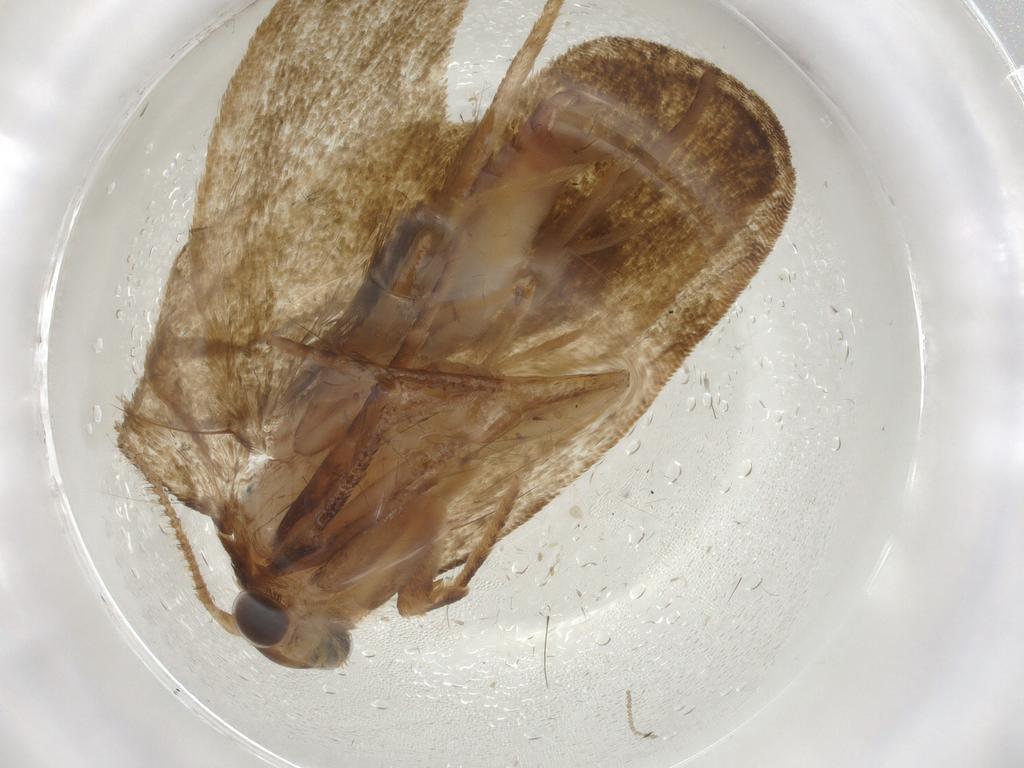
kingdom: Animalia
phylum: Arthropoda
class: Insecta
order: Lepidoptera
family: Geometridae
